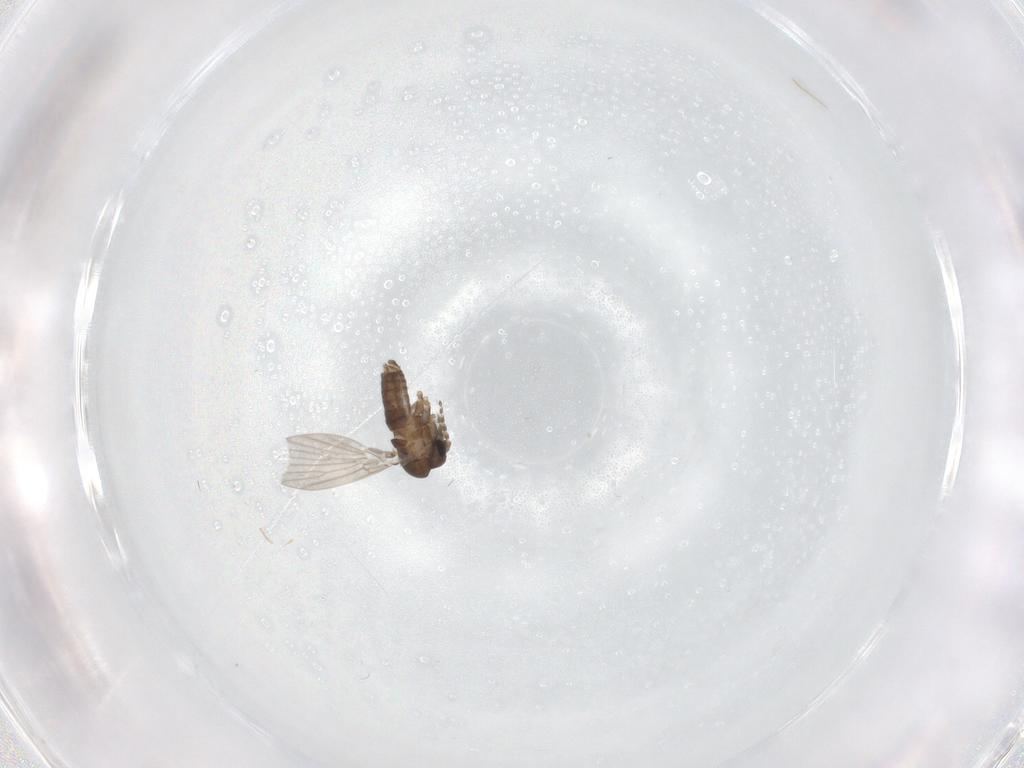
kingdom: Animalia
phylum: Arthropoda
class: Insecta
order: Diptera
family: Cecidomyiidae
